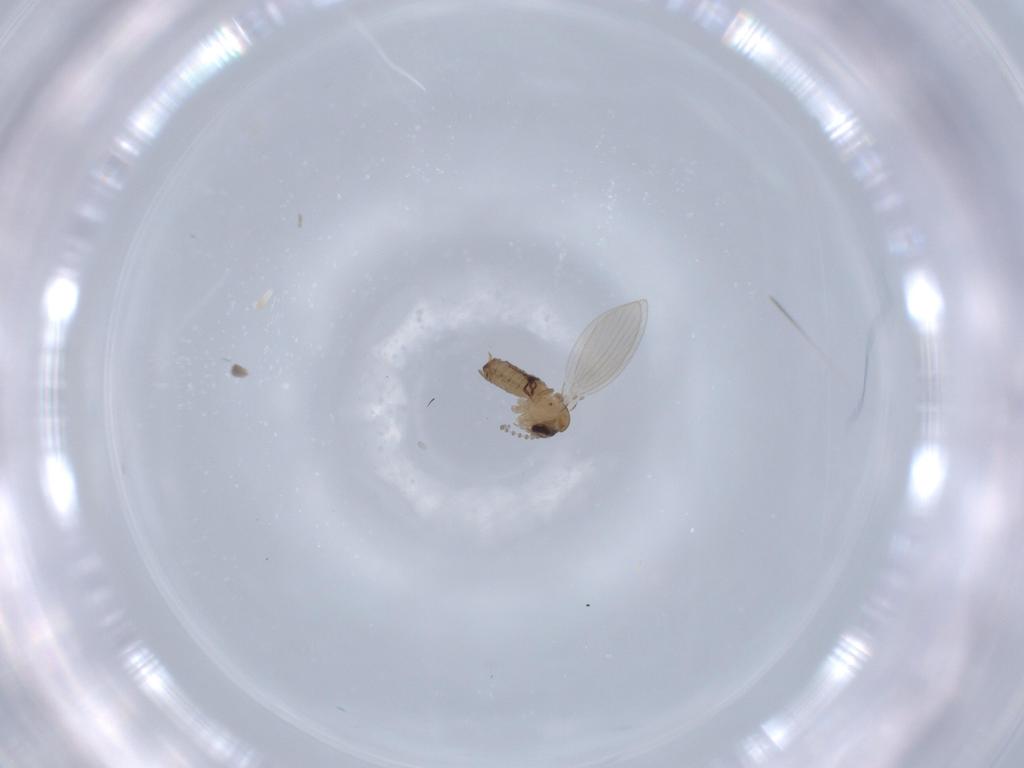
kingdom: Animalia
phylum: Arthropoda
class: Insecta
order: Diptera
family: Psychodidae
